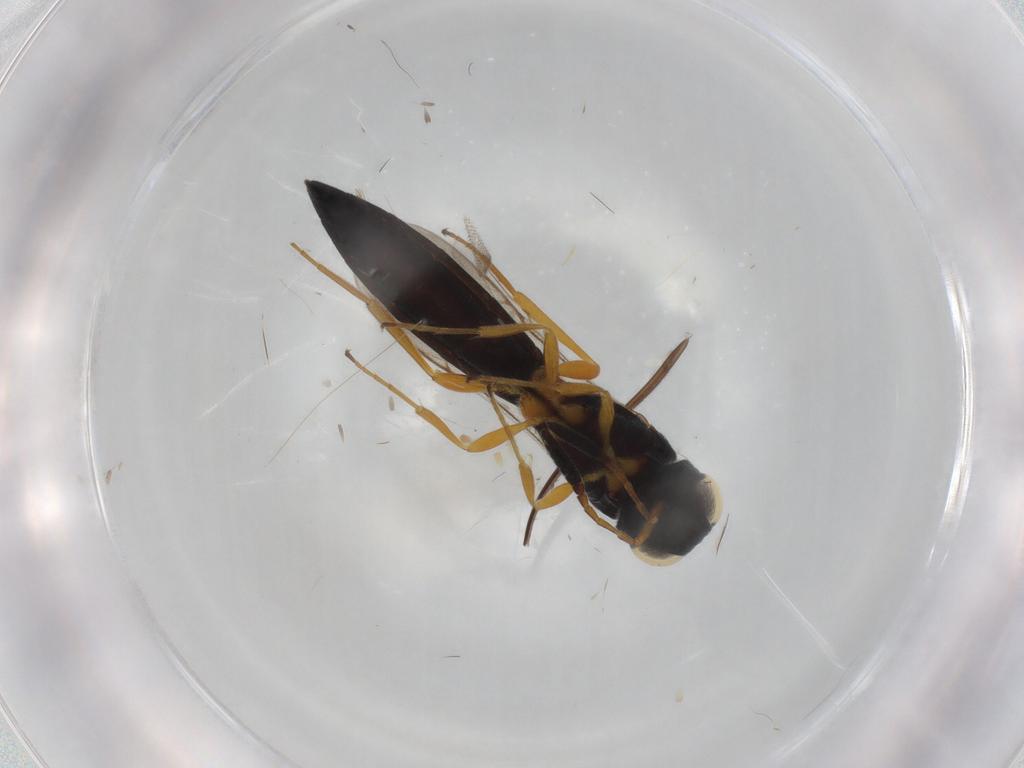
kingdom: Animalia
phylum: Arthropoda
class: Insecta
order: Hymenoptera
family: Scelionidae
